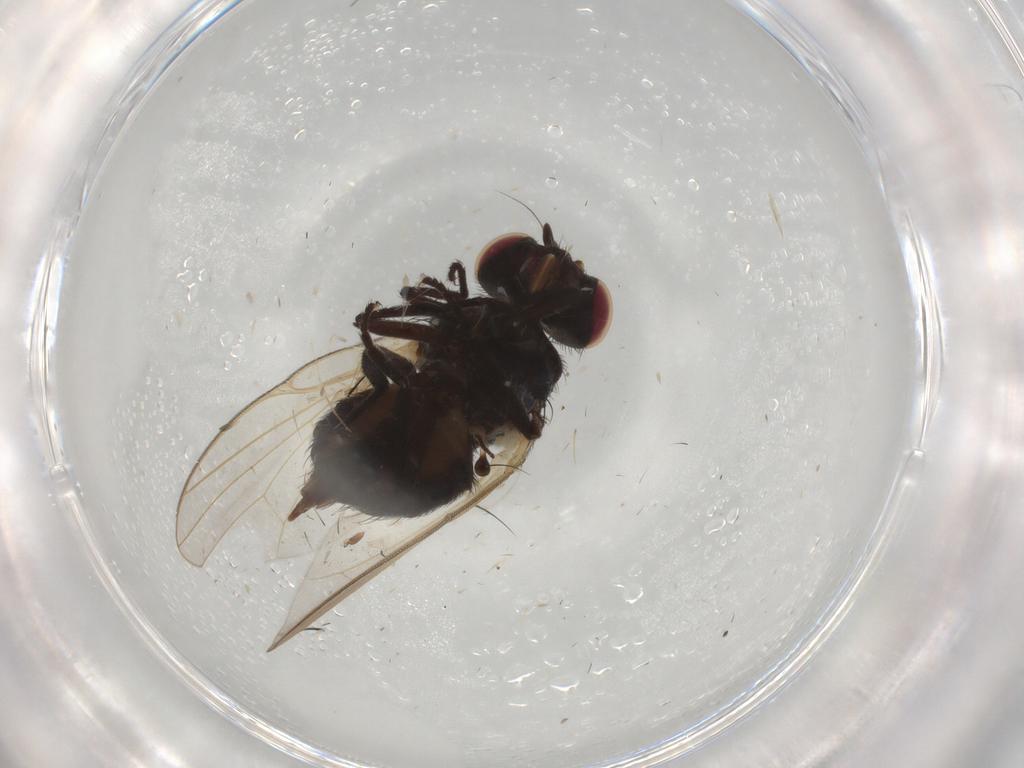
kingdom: Animalia
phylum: Arthropoda
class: Insecta
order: Diptera
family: Scatopsidae
